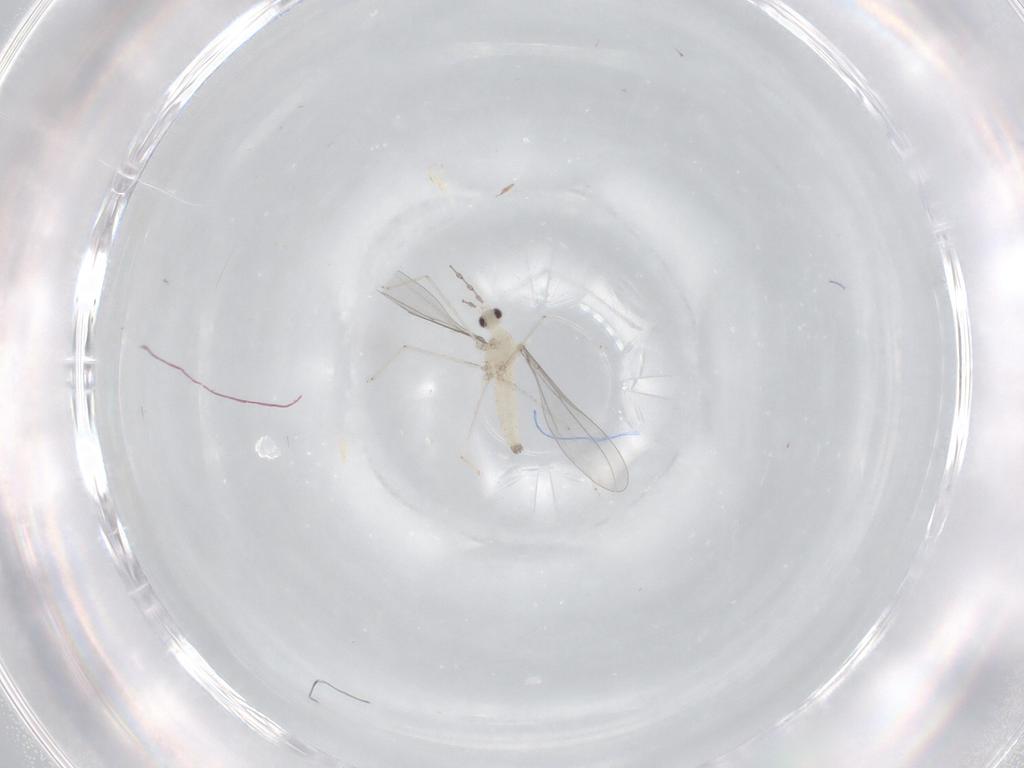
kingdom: Animalia
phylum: Arthropoda
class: Insecta
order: Diptera
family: Cecidomyiidae
